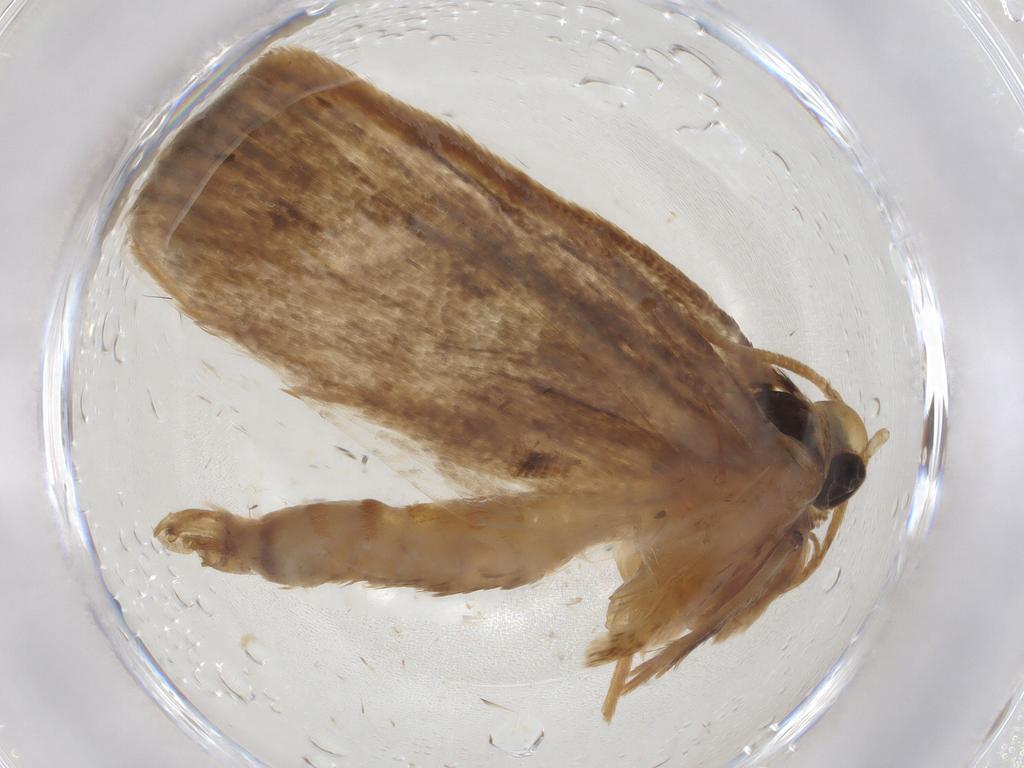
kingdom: Animalia
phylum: Arthropoda
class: Insecta
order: Lepidoptera
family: Oecophoridae
